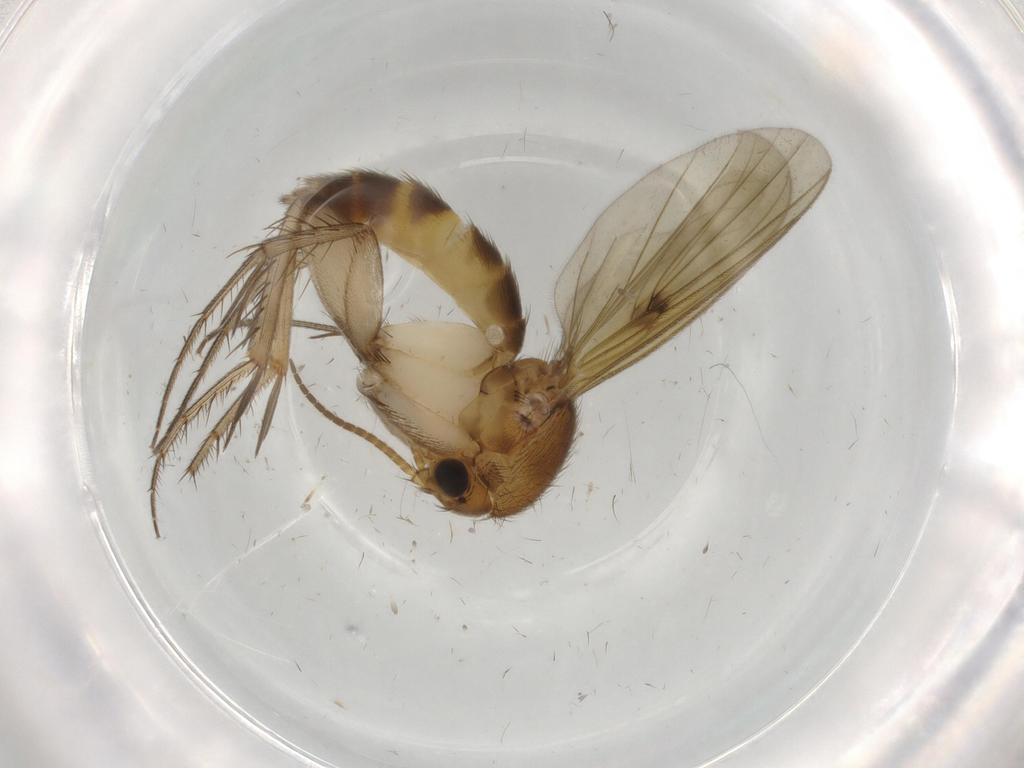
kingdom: Animalia
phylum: Arthropoda
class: Insecta
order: Diptera
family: Mycetophilidae
